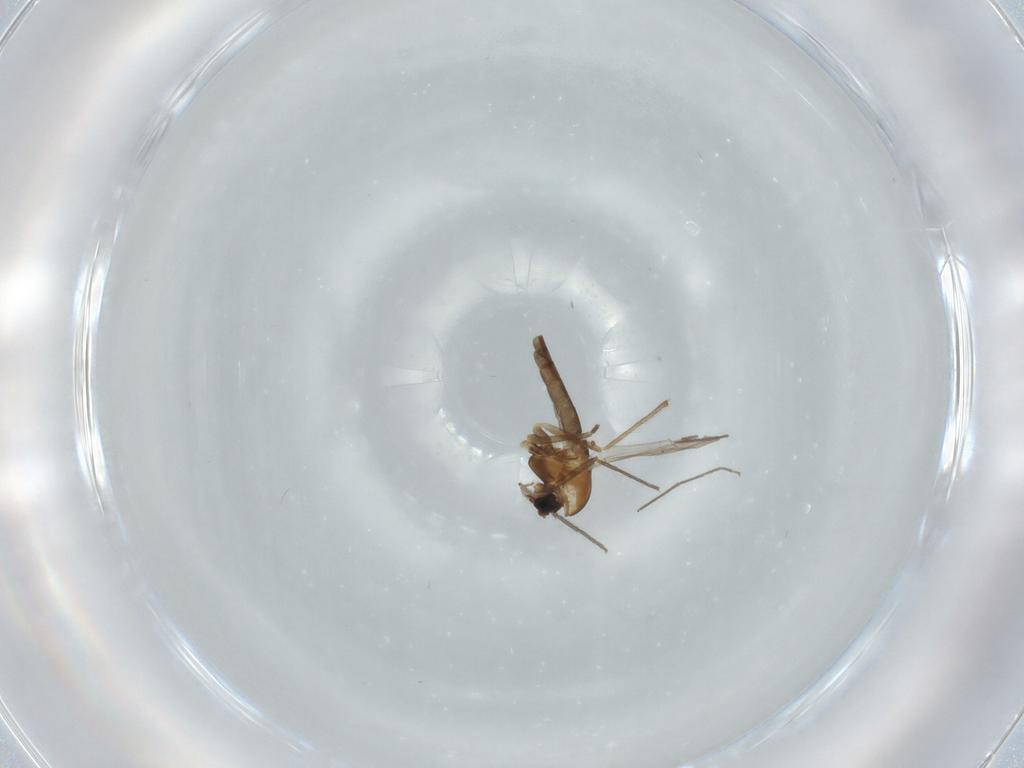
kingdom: Animalia
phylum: Arthropoda
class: Insecta
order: Diptera
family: Chironomidae
